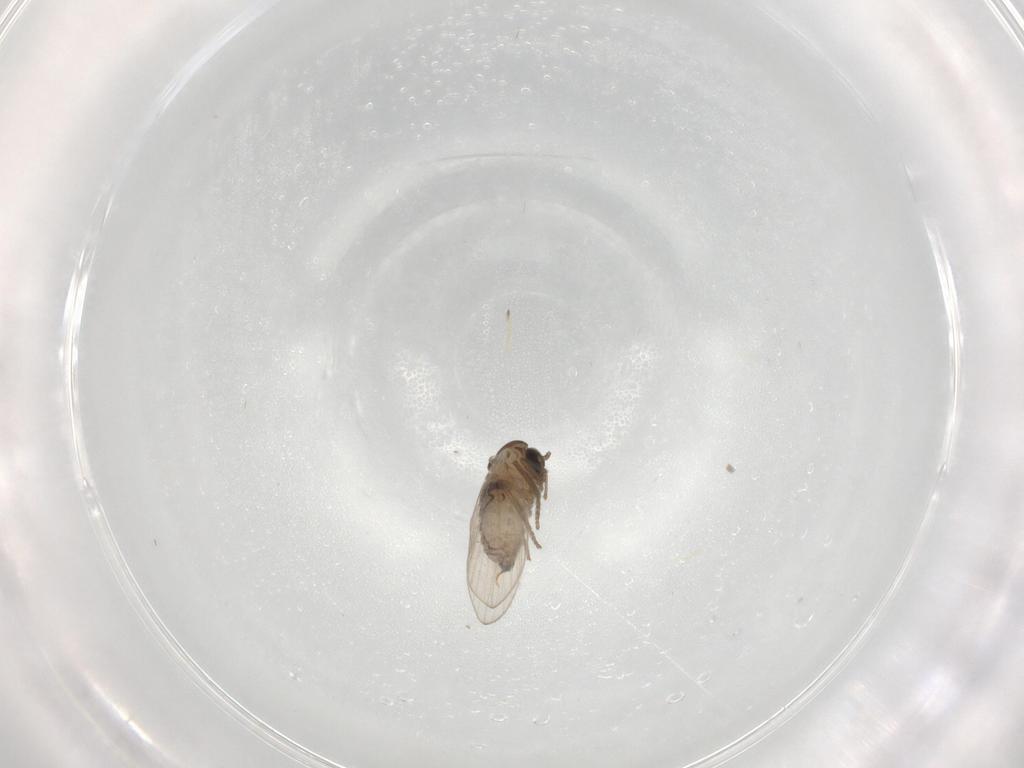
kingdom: Animalia
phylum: Arthropoda
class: Insecta
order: Diptera
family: Psychodidae
